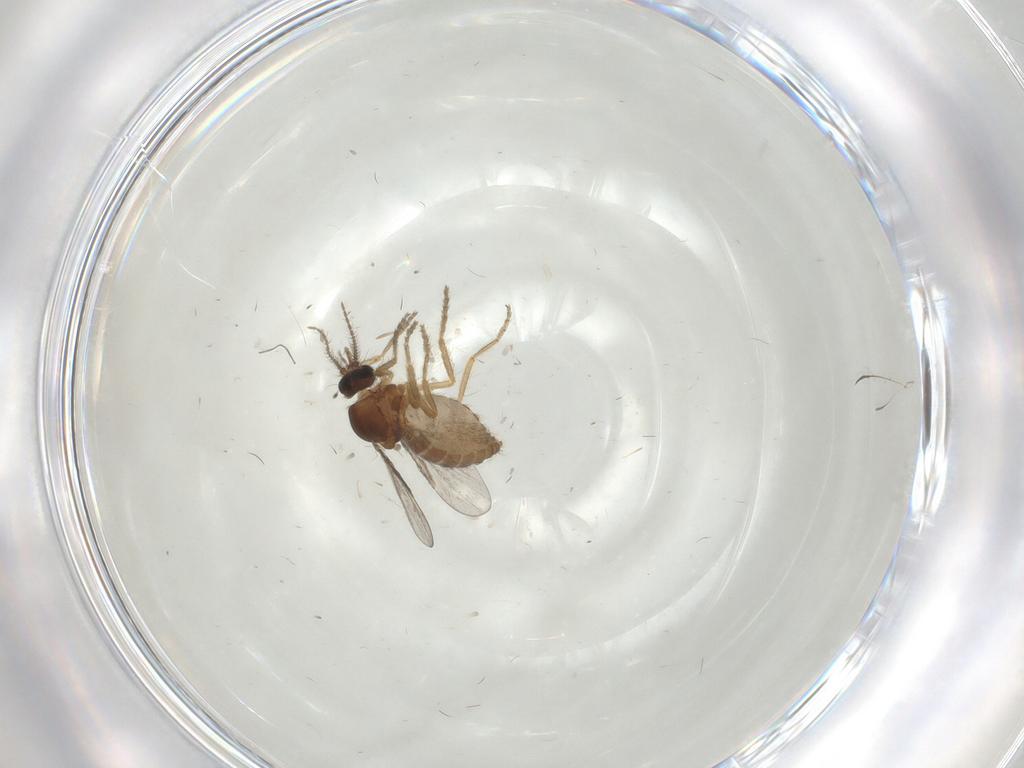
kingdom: Animalia
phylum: Arthropoda
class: Insecta
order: Diptera
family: Ceratopogonidae
